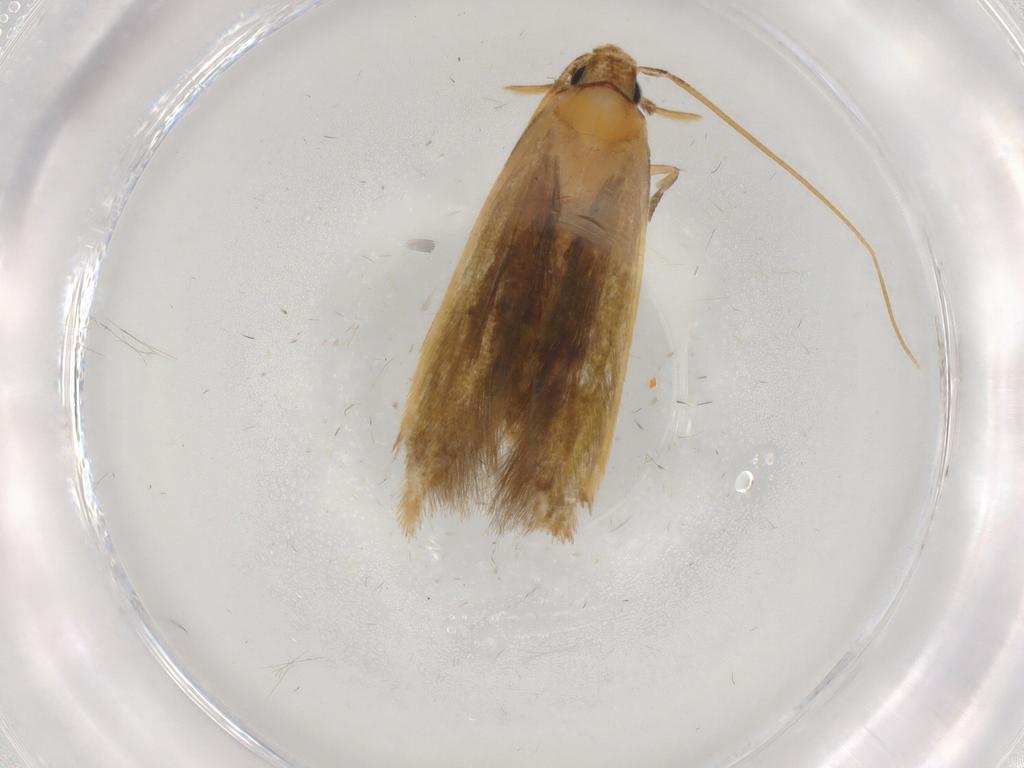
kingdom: Animalia
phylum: Arthropoda
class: Insecta
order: Lepidoptera
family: Tineidae
